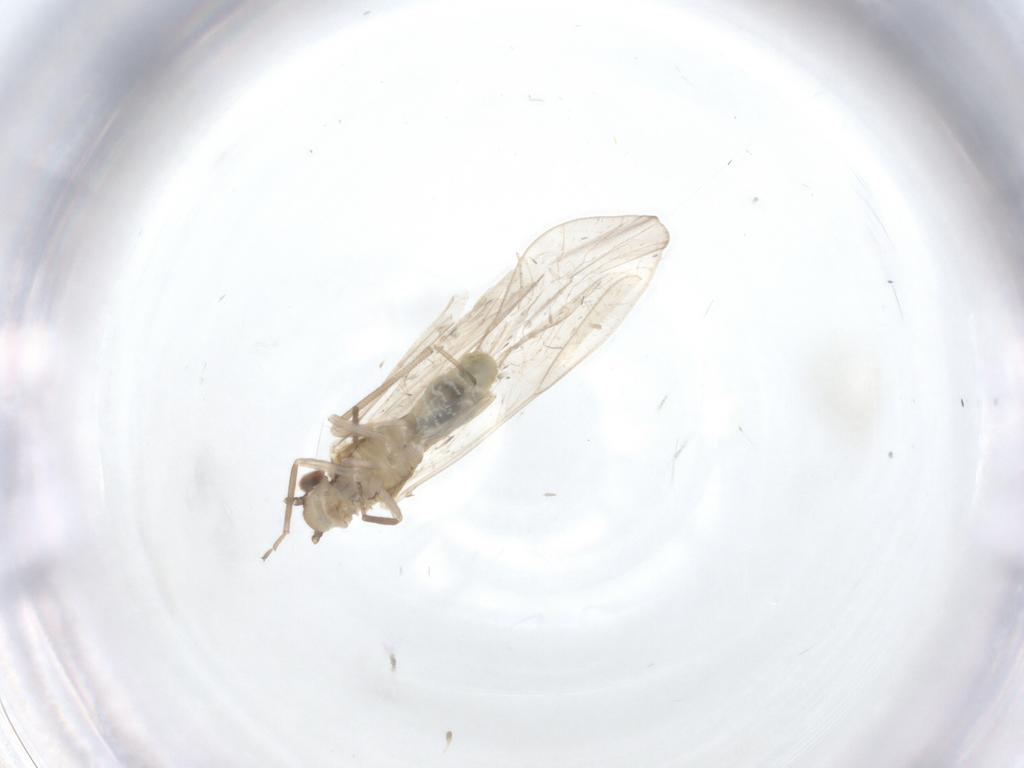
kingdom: Animalia
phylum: Arthropoda
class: Insecta
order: Psocodea
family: Caeciliusidae
